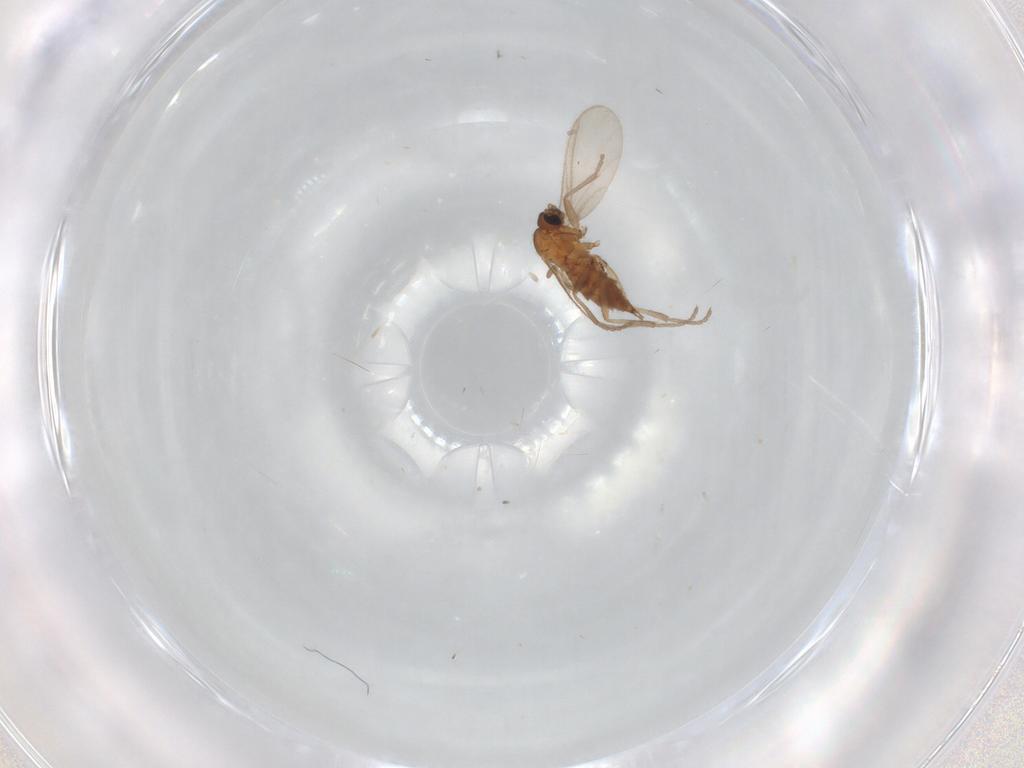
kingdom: Animalia
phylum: Arthropoda
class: Insecta
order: Diptera
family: Sciaridae
